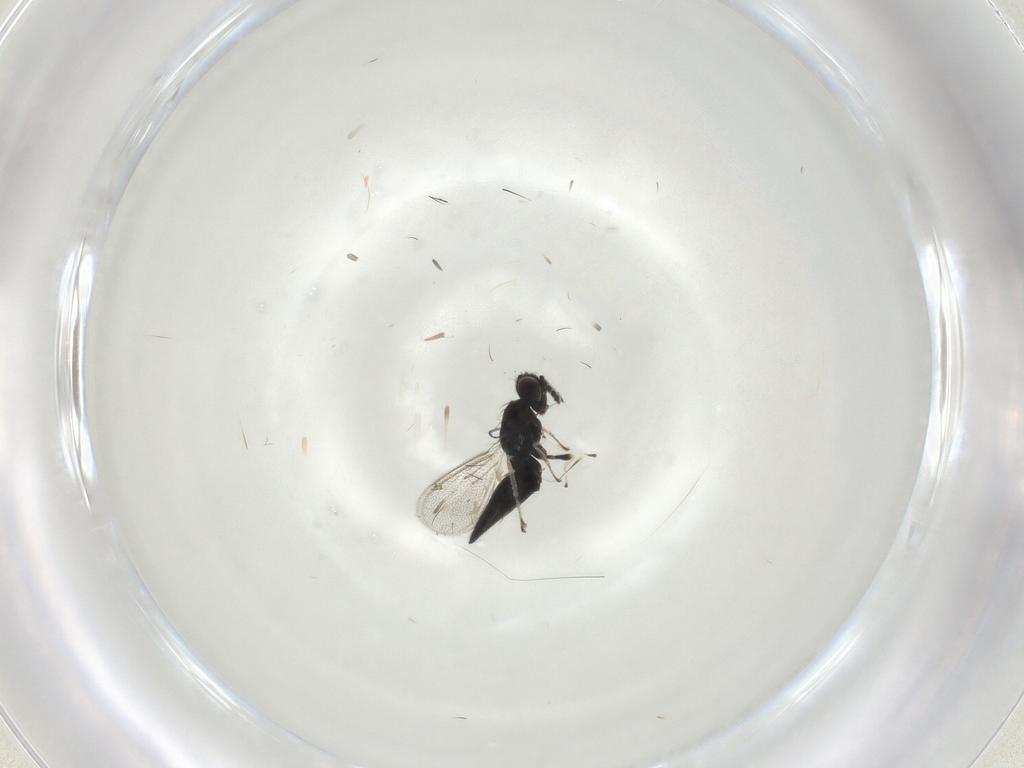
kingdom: Animalia
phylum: Arthropoda
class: Insecta
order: Hymenoptera
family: Eulophidae
